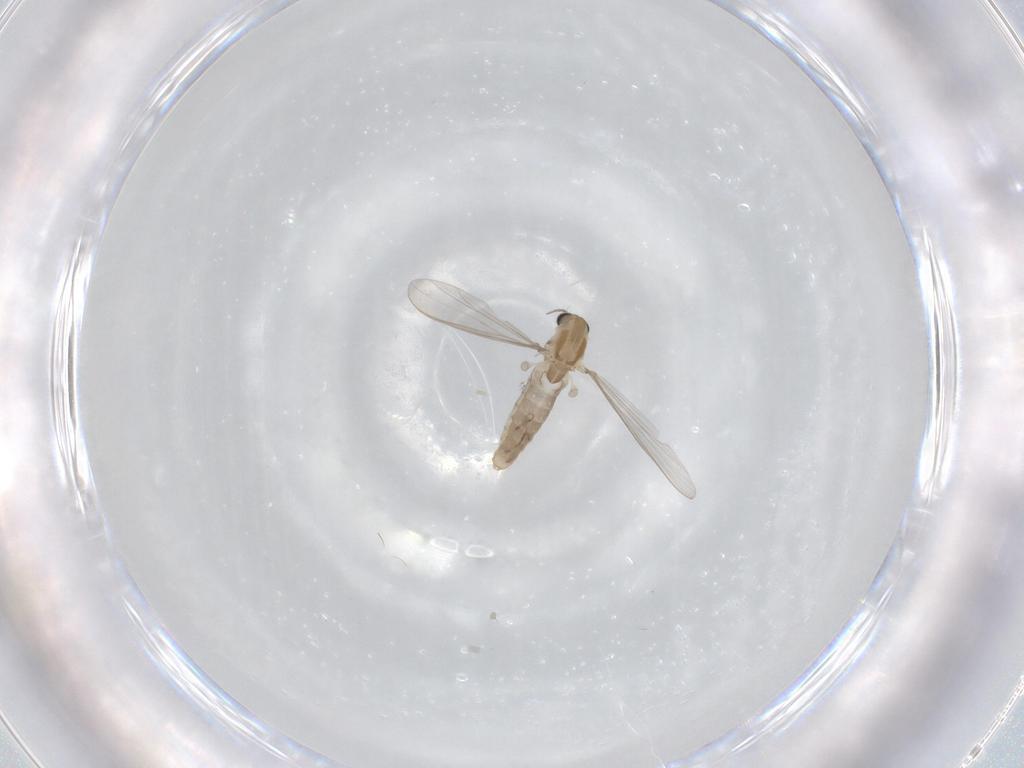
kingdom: Animalia
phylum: Arthropoda
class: Insecta
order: Diptera
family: Chironomidae
